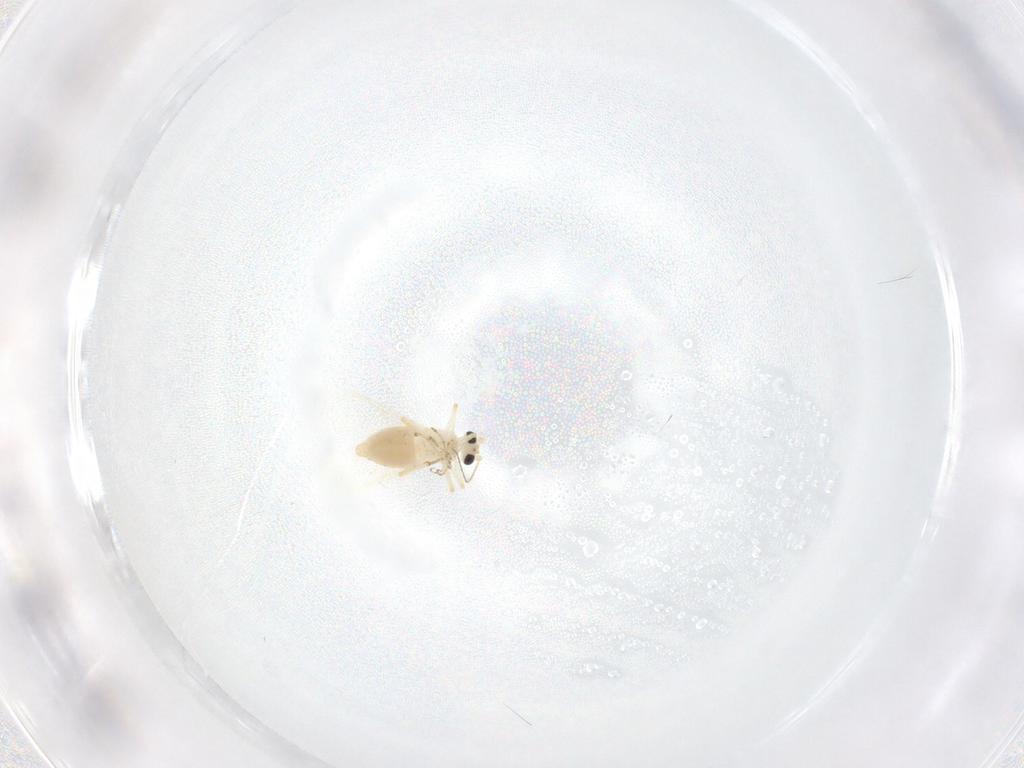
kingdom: Animalia
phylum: Arthropoda
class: Insecta
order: Diptera
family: Ceratopogonidae
